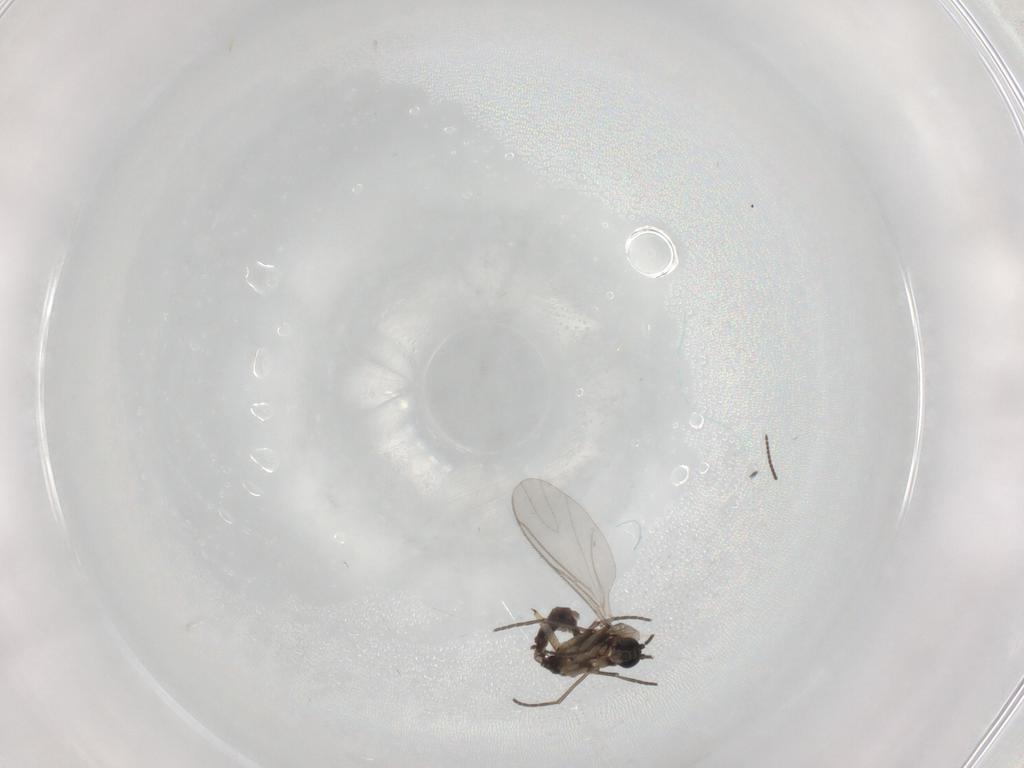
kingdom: Animalia
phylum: Arthropoda
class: Insecta
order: Diptera
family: Sciaridae
